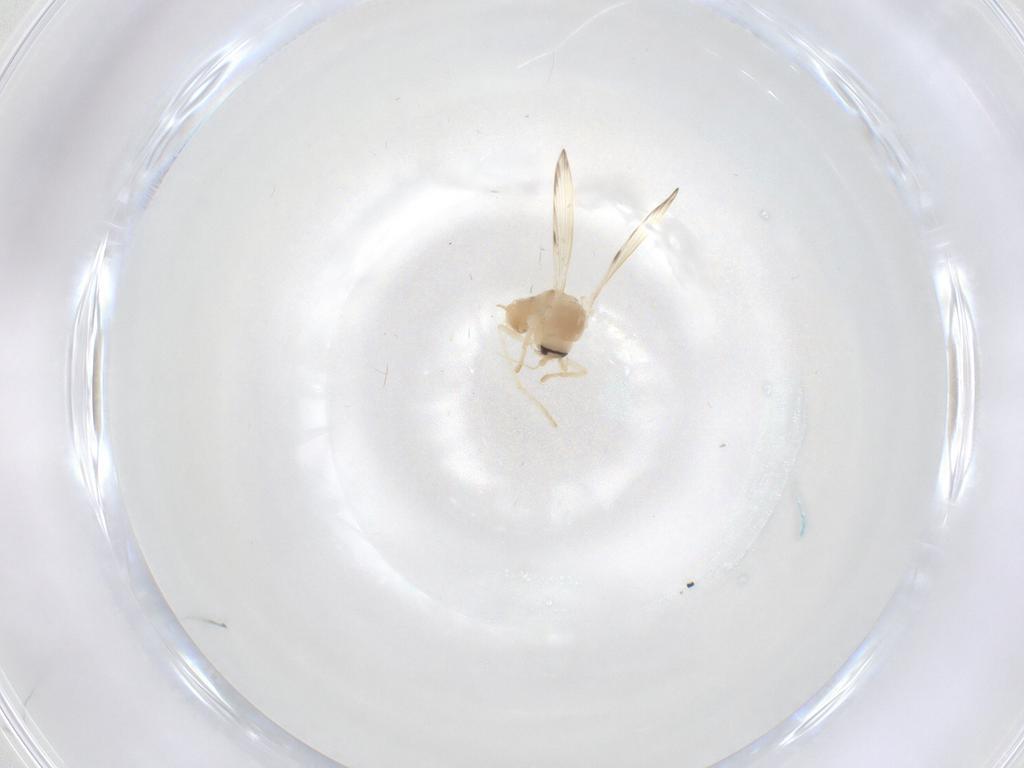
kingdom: Animalia
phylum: Arthropoda
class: Insecta
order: Diptera
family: Psychodidae
